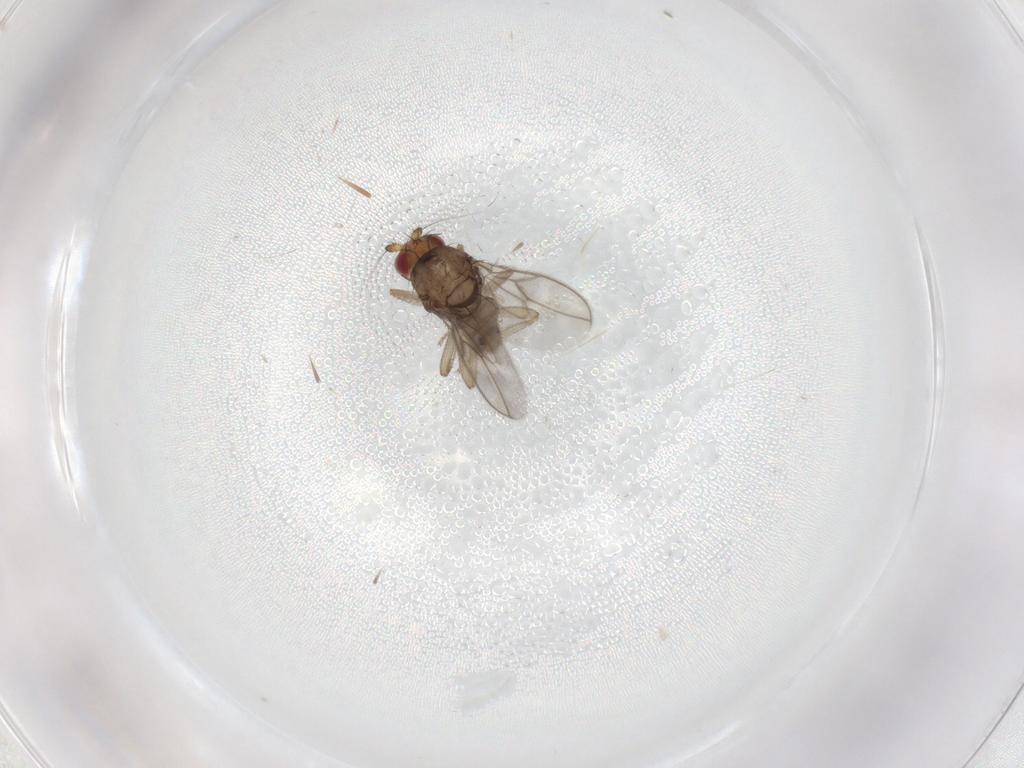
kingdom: Animalia
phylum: Arthropoda
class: Insecta
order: Diptera
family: Sphaeroceridae
